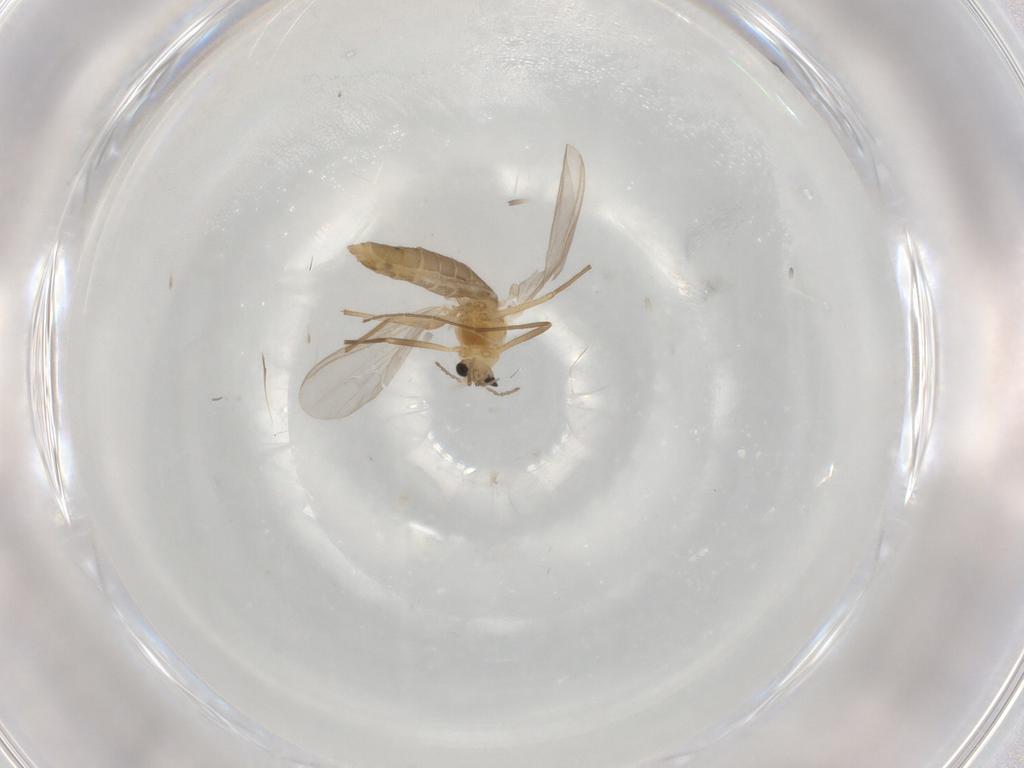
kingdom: Animalia
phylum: Arthropoda
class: Insecta
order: Diptera
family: Chironomidae
